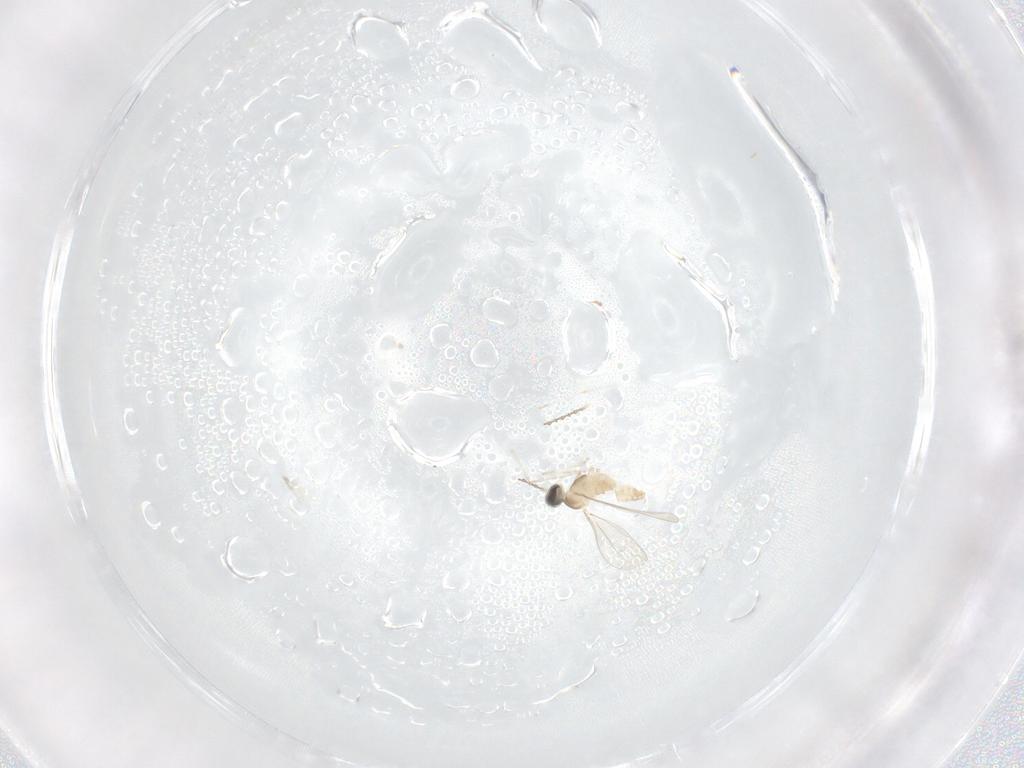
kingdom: Animalia
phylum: Arthropoda
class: Insecta
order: Diptera
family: Cecidomyiidae
